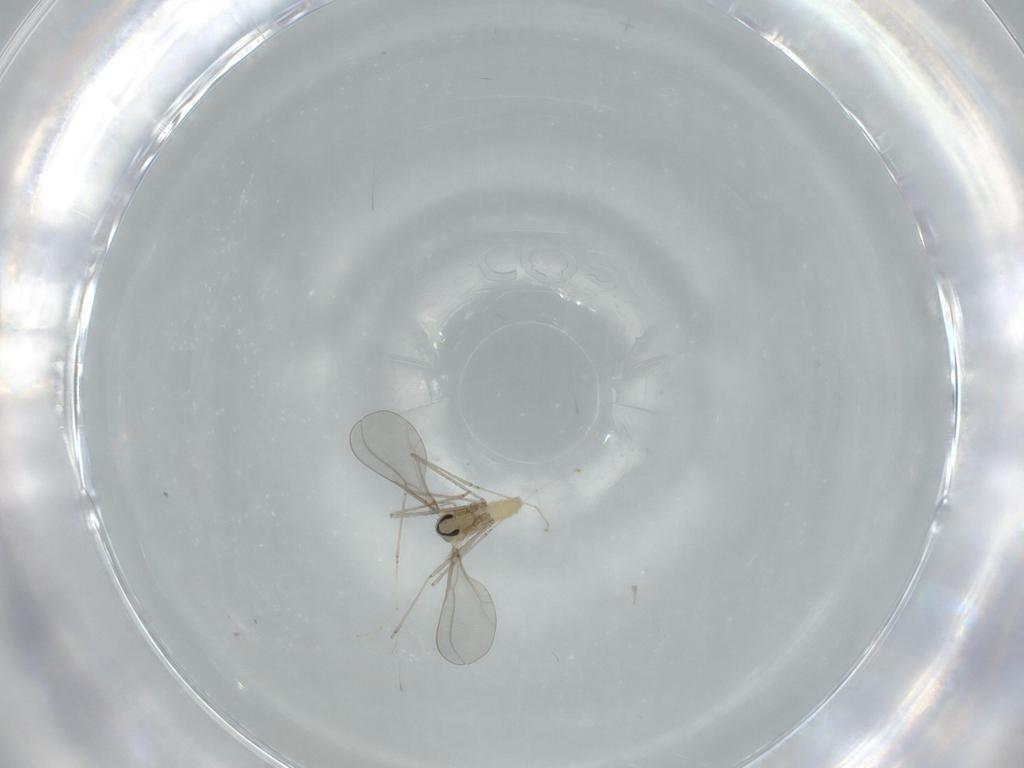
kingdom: Animalia
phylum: Arthropoda
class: Insecta
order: Diptera
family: Cecidomyiidae
